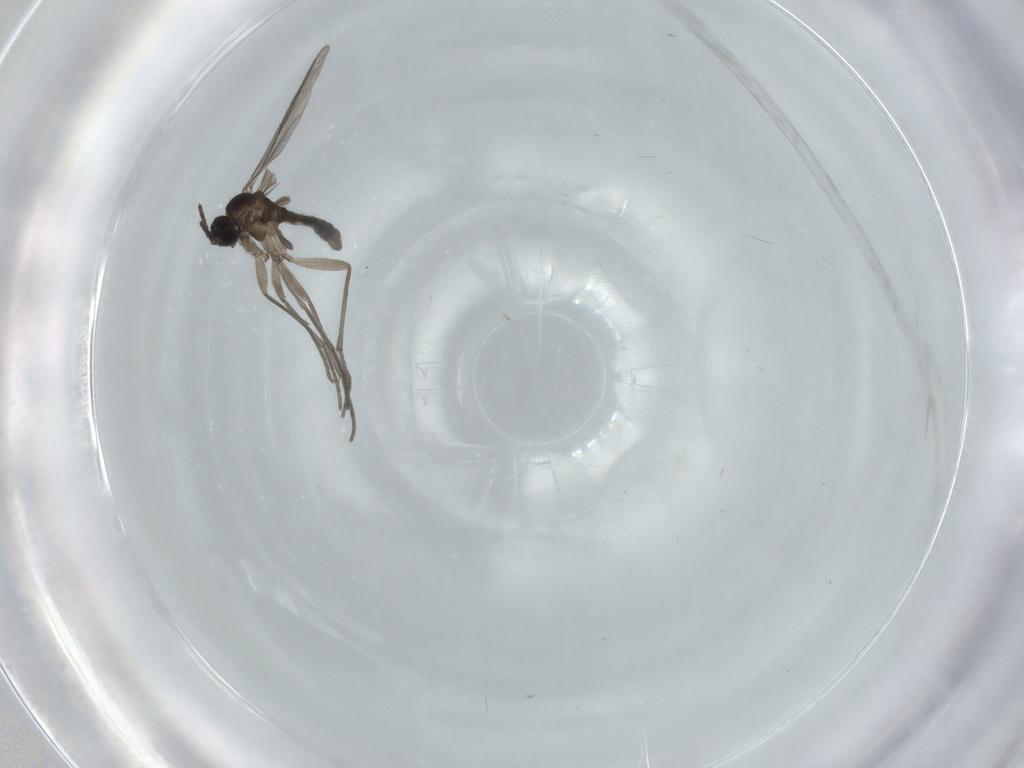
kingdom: Animalia
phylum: Arthropoda
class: Insecta
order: Diptera
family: Sciaridae
